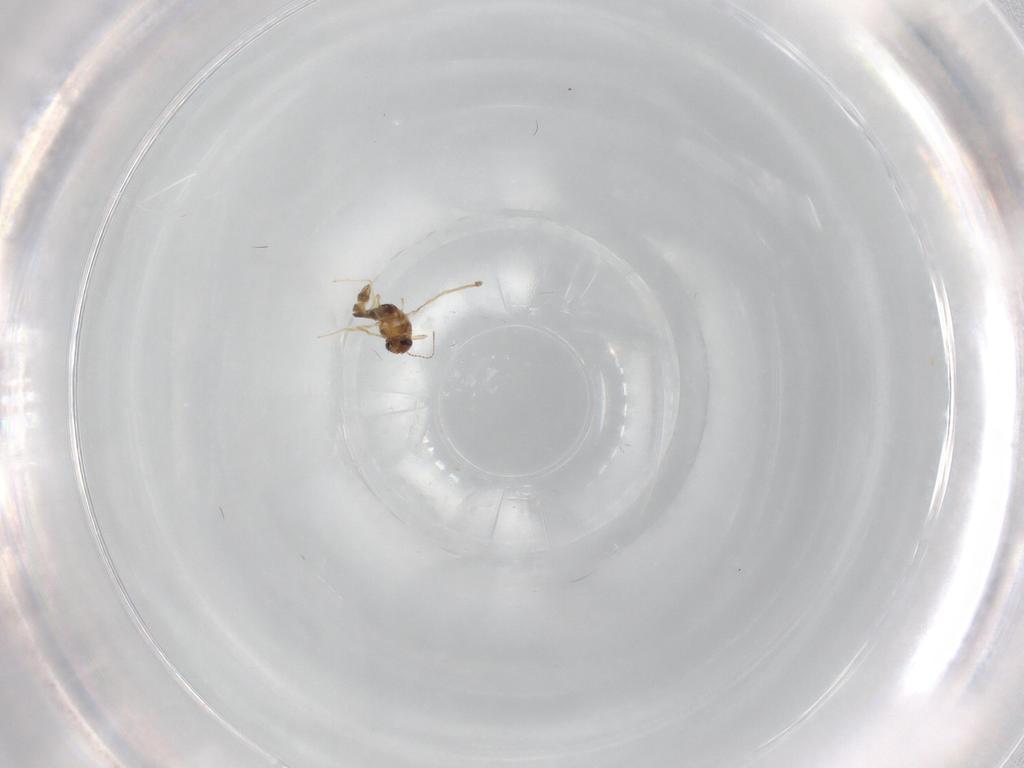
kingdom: Animalia
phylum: Arthropoda
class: Insecta
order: Diptera
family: Chironomidae
